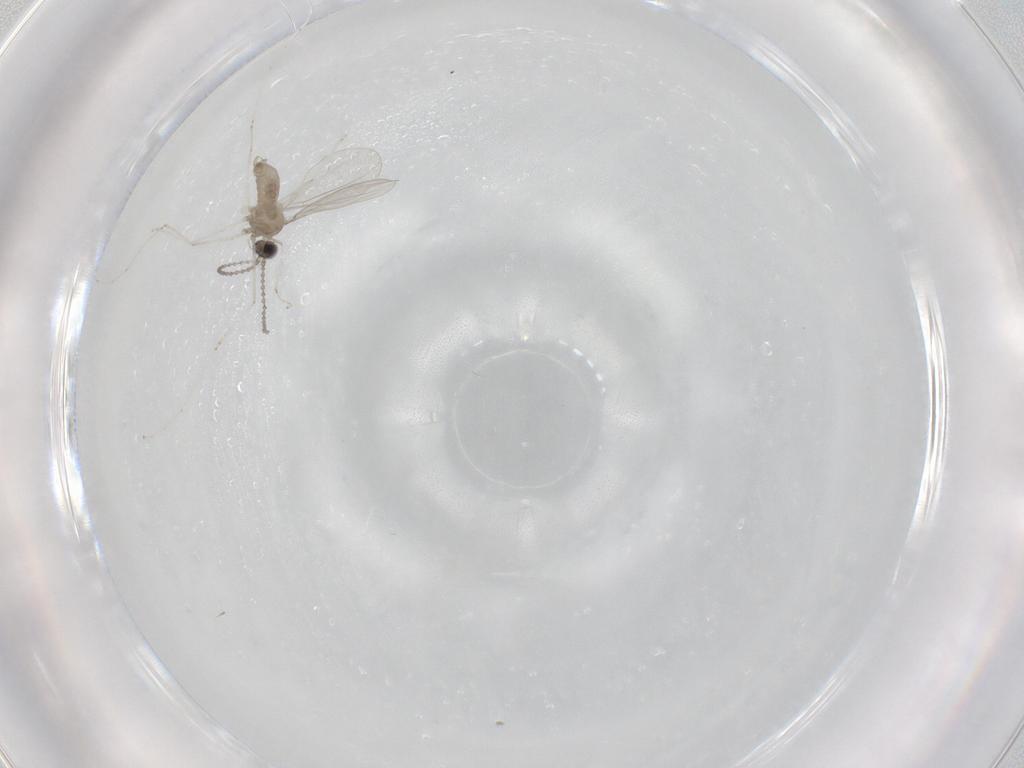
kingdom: Animalia
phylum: Arthropoda
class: Insecta
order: Diptera
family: Cecidomyiidae
